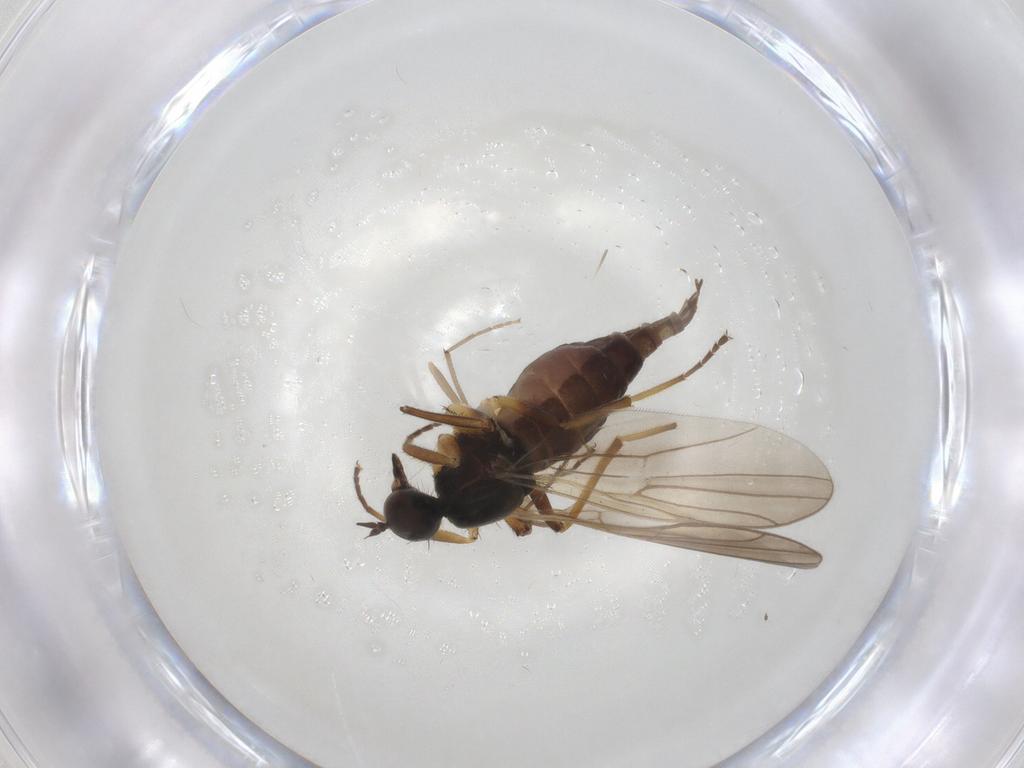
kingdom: Animalia
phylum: Arthropoda
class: Insecta
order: Diptera
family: Hybotidae
